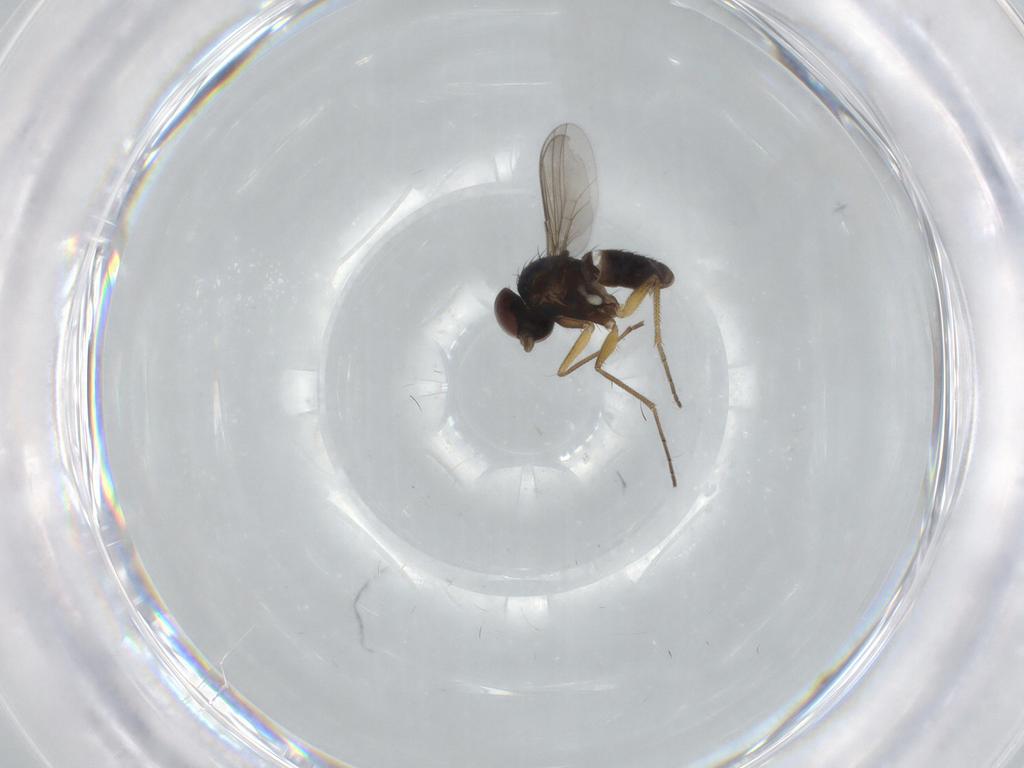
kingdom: Animalia
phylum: Arthropoda
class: Insecta
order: Diptera
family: Dolichopodidae
